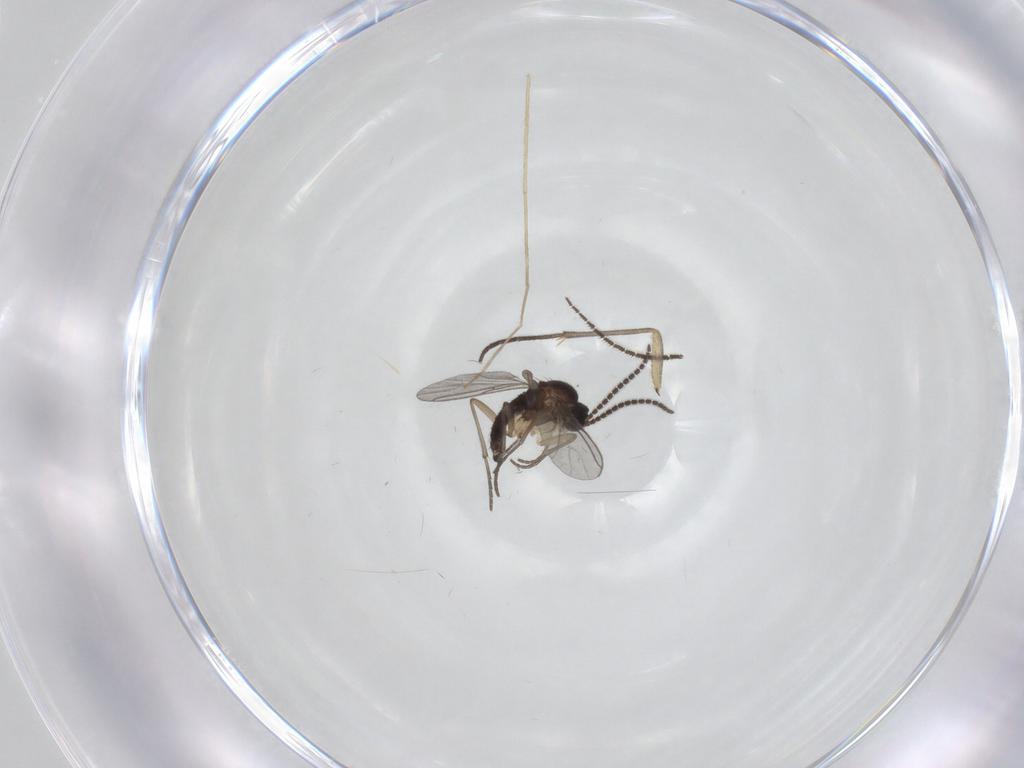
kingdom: Animalia
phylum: Arthropoda
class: Insecta
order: Diptera
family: Sciaridae
